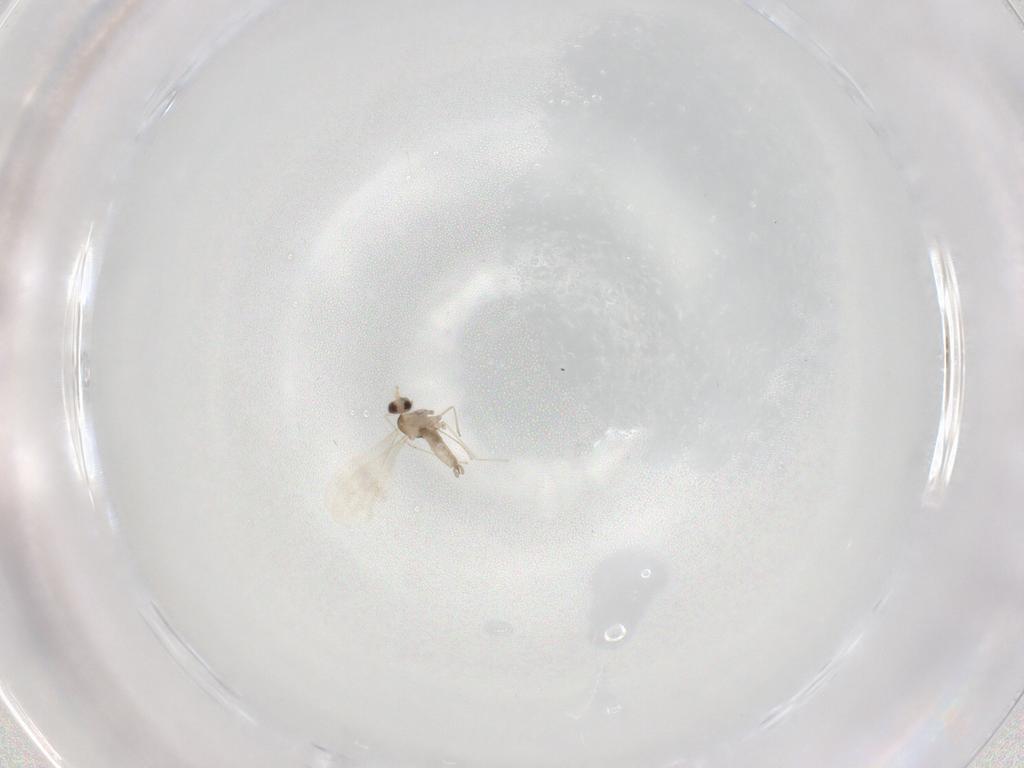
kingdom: Animalia
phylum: Arthropoda
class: Insecta
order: Diptera
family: Cecidomyiidae
